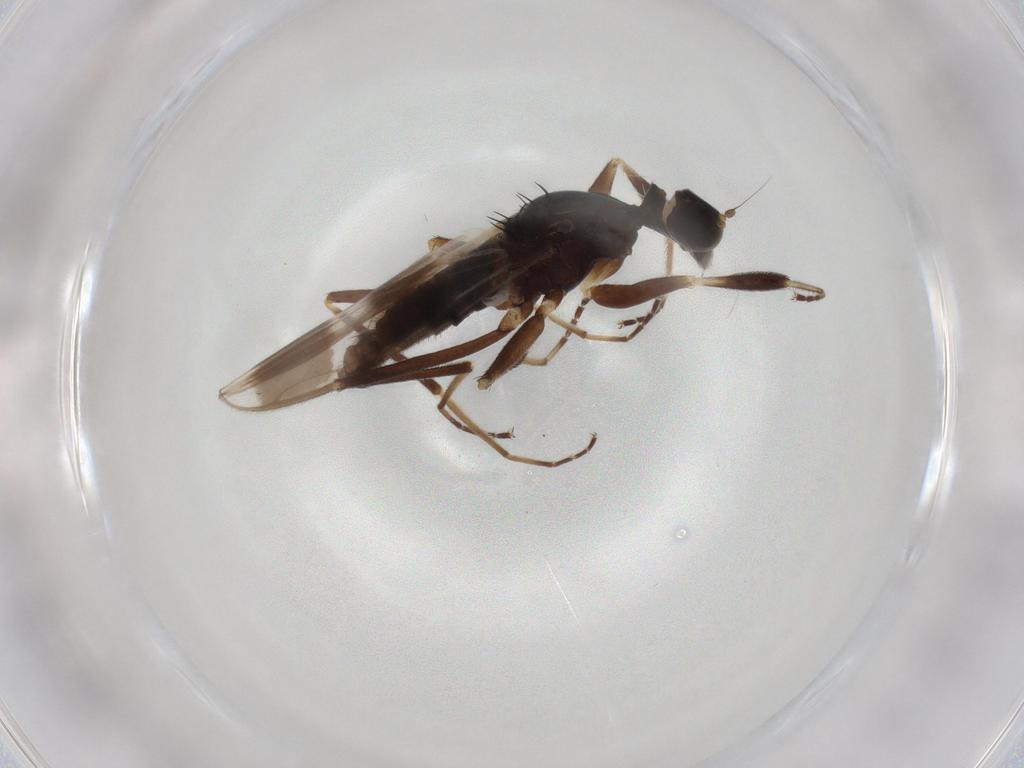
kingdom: Animalia
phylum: Arthropoda
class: Insecta
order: Diptera
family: Hybotidae
